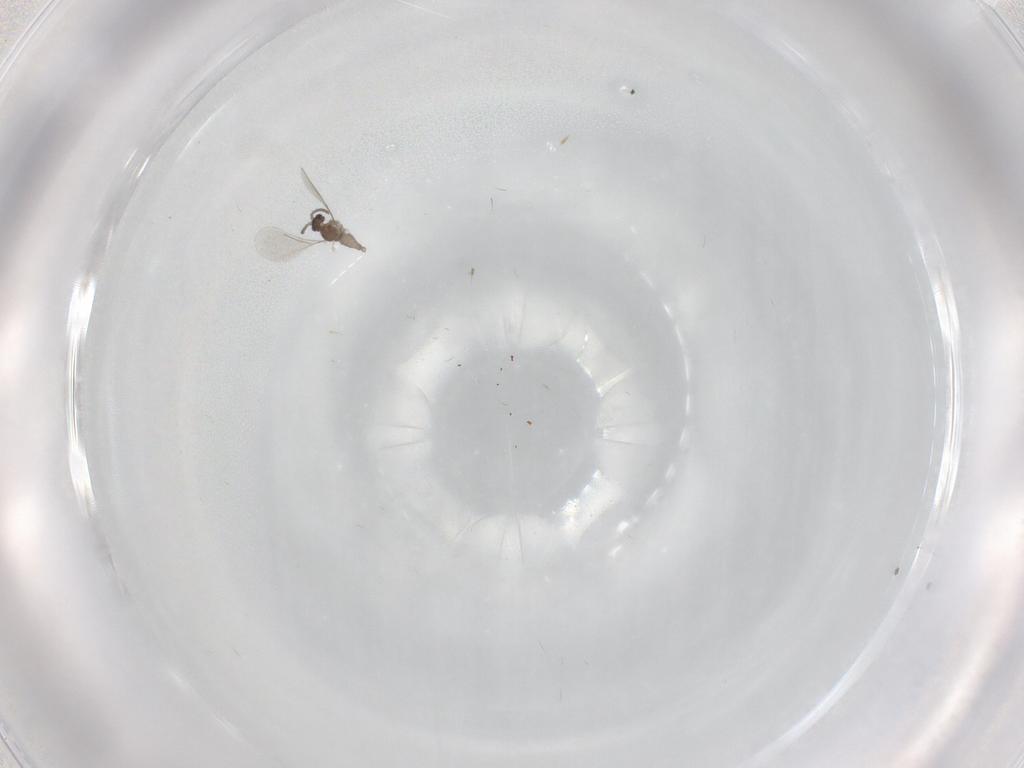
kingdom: Animalia
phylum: Arthropoda
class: Insecta
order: Diptera
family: Cecidomyiidae
